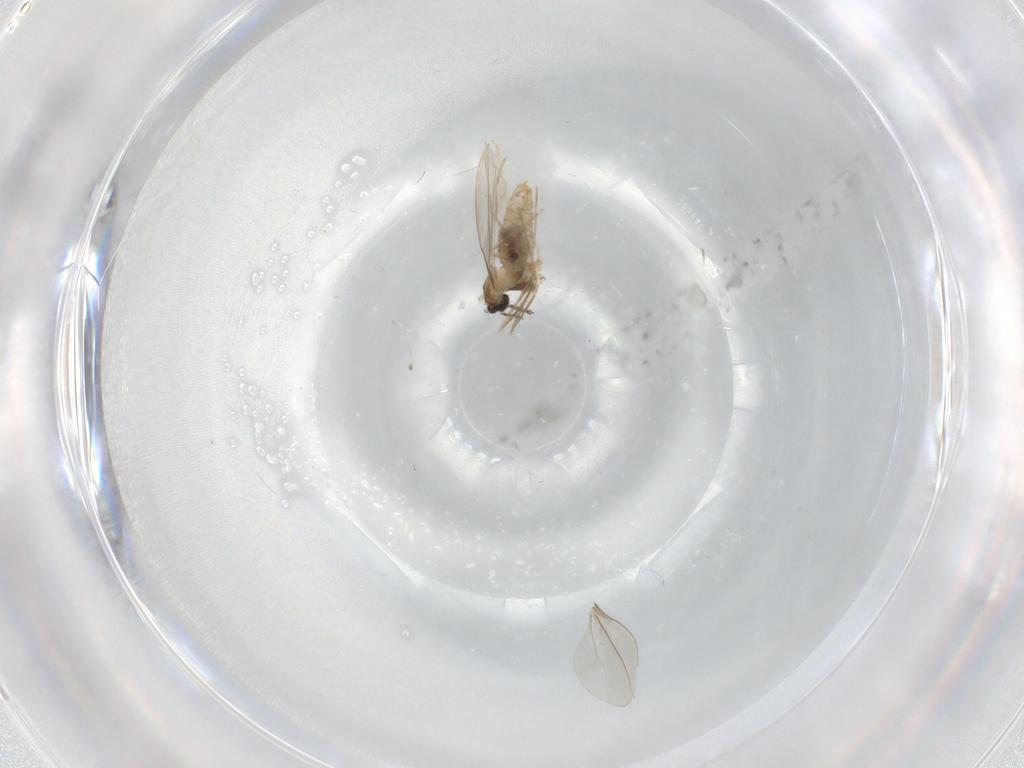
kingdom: Animalia
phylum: Arthropoda
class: Insecta
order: Diptera
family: Cecidomyiidae
